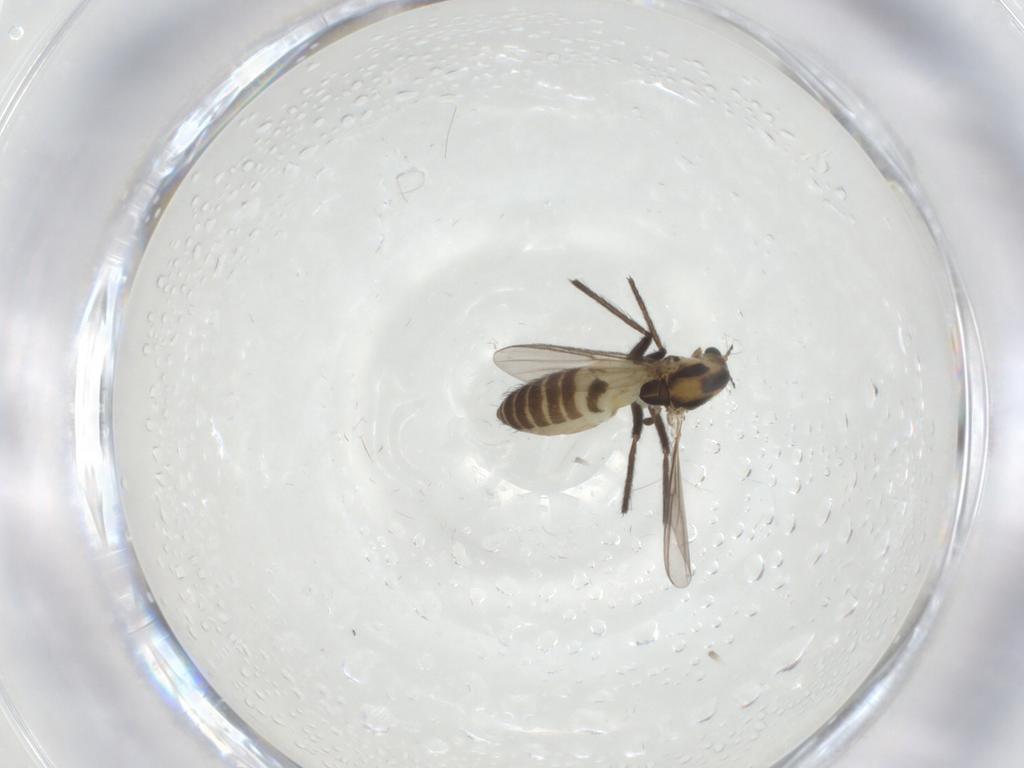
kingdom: Animalia
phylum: Arthropoda
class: Insecta
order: Diptera
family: Chironomidae
